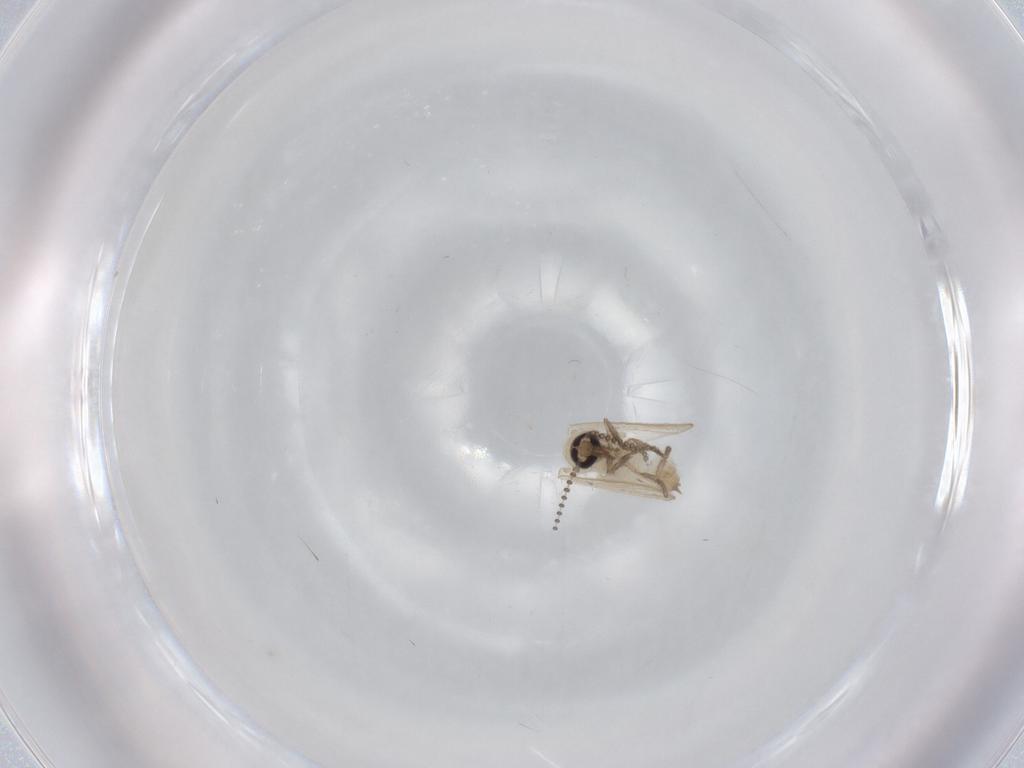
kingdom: Animalia
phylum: Arthropoda
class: Insecta
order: Diptera
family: Psychodidae
